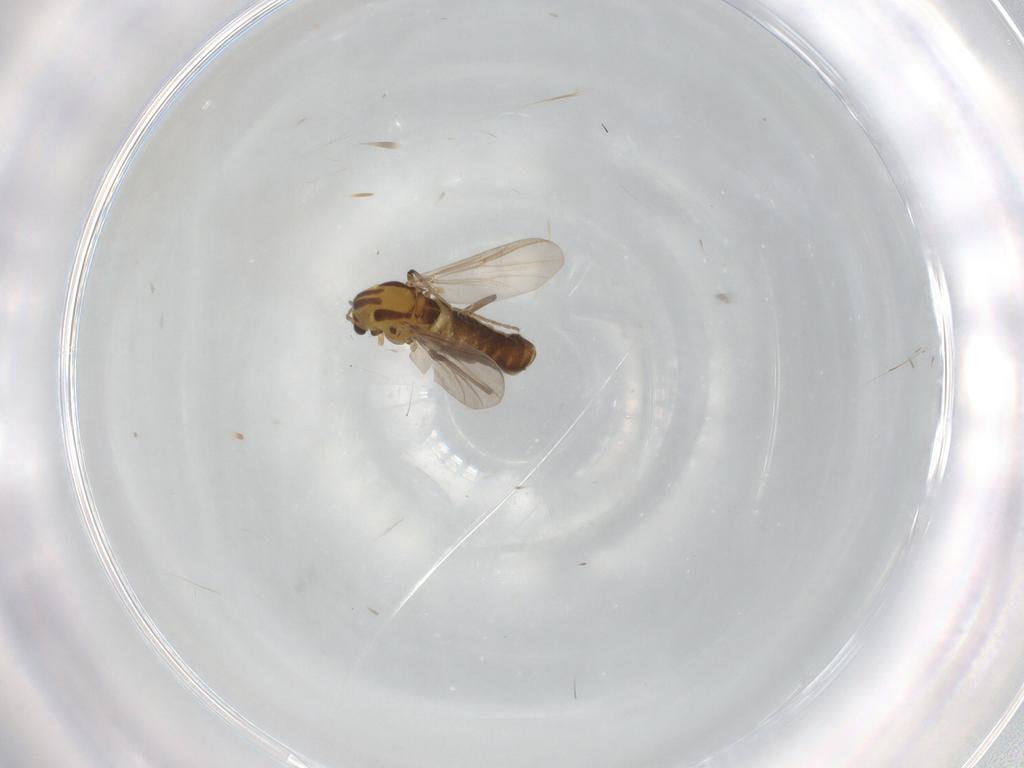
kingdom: Animalia
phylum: Arthropoda
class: Insecta
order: Diptera
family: Chironomidae
